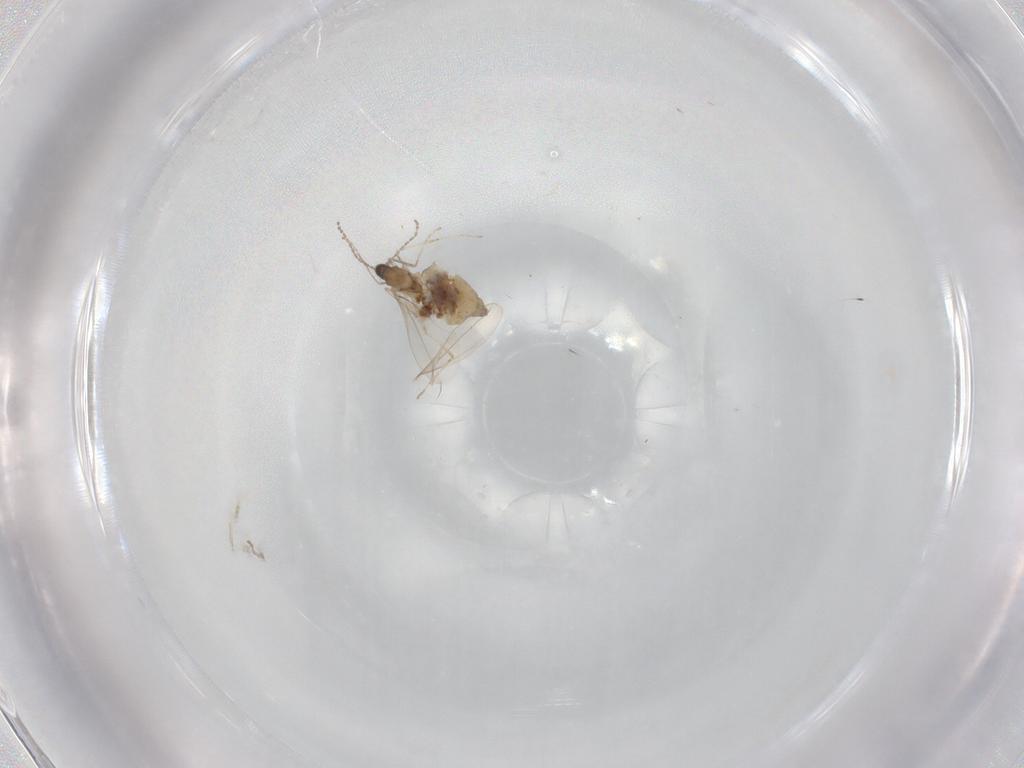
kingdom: Animalia
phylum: Arthropoda
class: Insecta
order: Diptera
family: Cecidomyiidae
